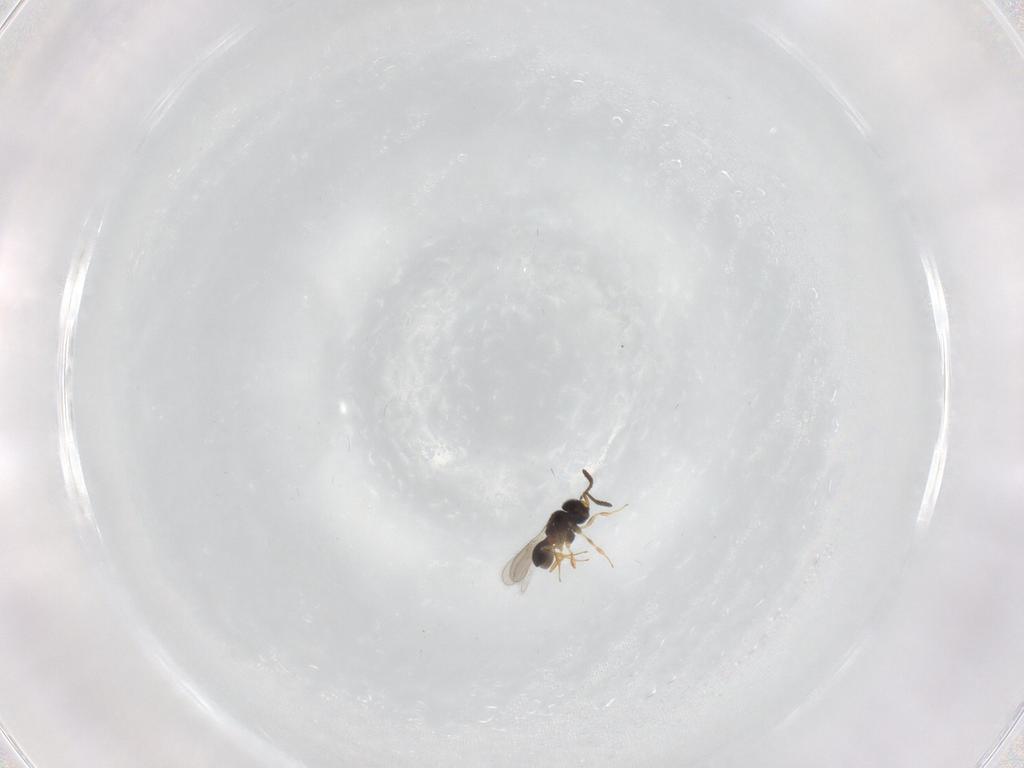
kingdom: Animalia
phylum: Arthropoda
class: Insecta
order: Hymenoptera
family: Scelionidae
